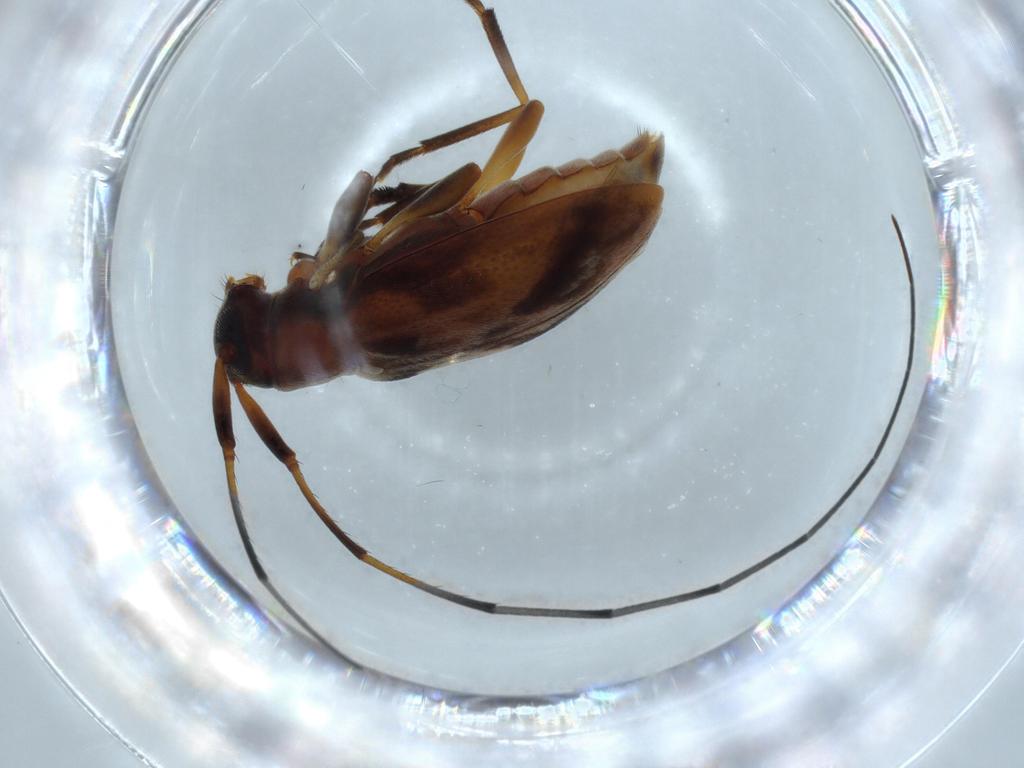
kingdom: Animalia
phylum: Arthropoda
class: Insecta
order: Coleoptera
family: Cerambycidae
